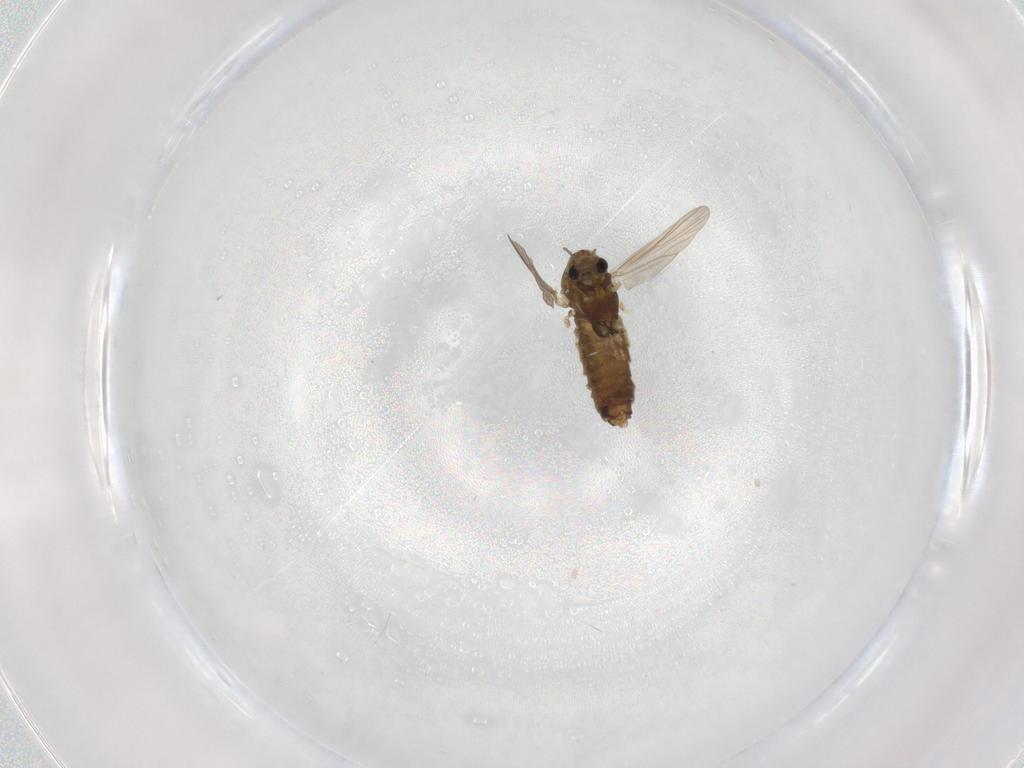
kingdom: Animalia
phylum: Arthropoda
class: Insecta
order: Diptera
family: Chironomidae
